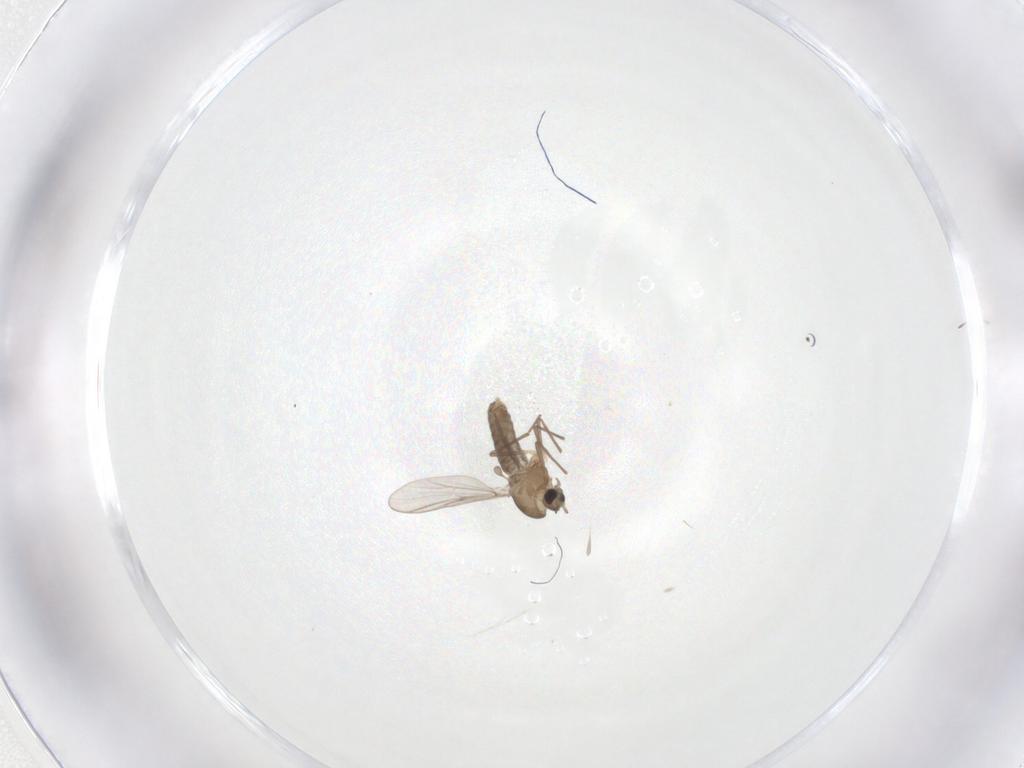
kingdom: Animalia
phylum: Arthropoda
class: Insecta
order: Diptera
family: Chironomidae
